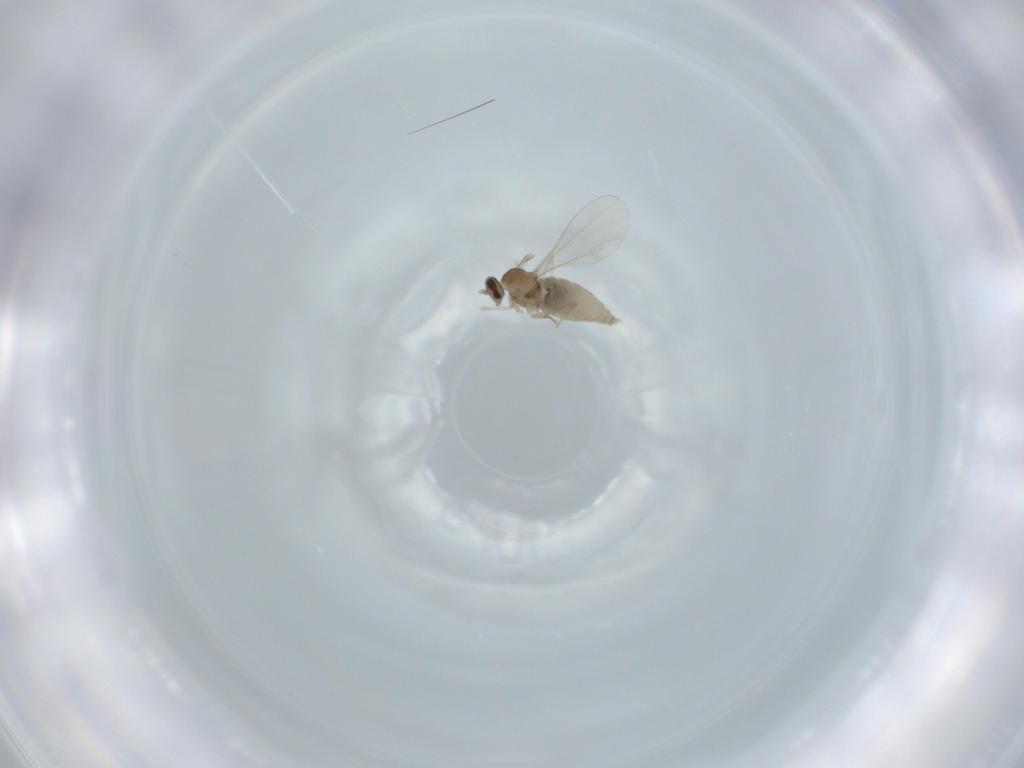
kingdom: Animalia
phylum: Arthropoda
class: Insecta
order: Diptera
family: Cecidomyiidae
